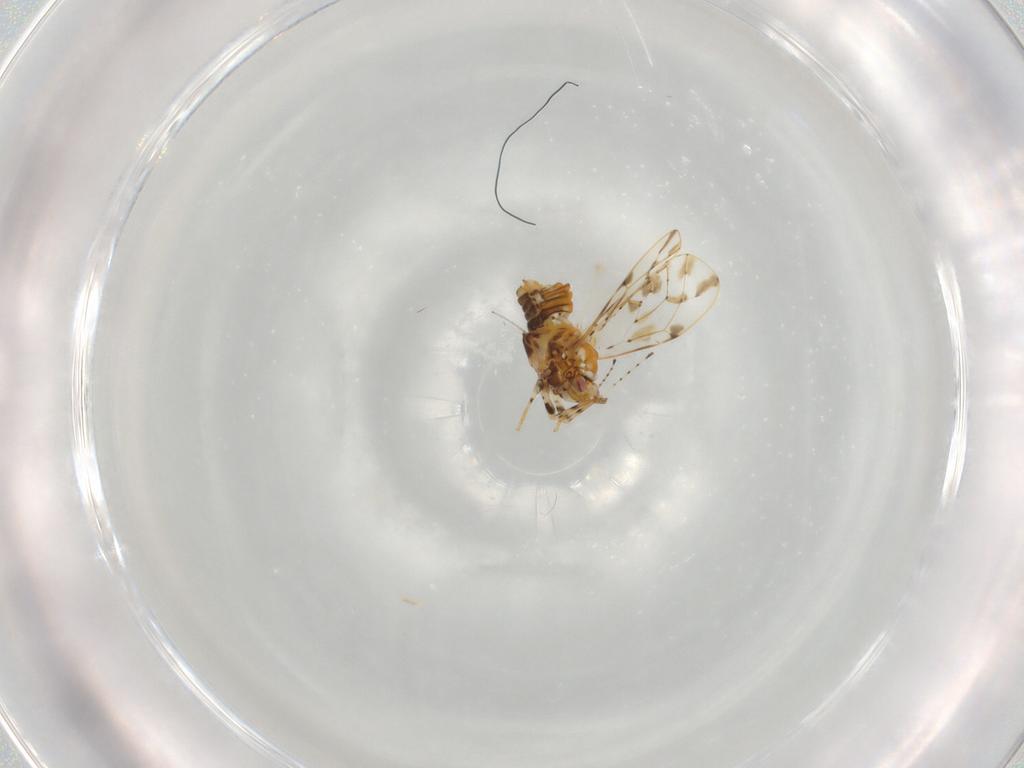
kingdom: Animalia
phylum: Arthropoda
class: Insecta
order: Hemiptera
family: Psylloidea_incertae_sedis
